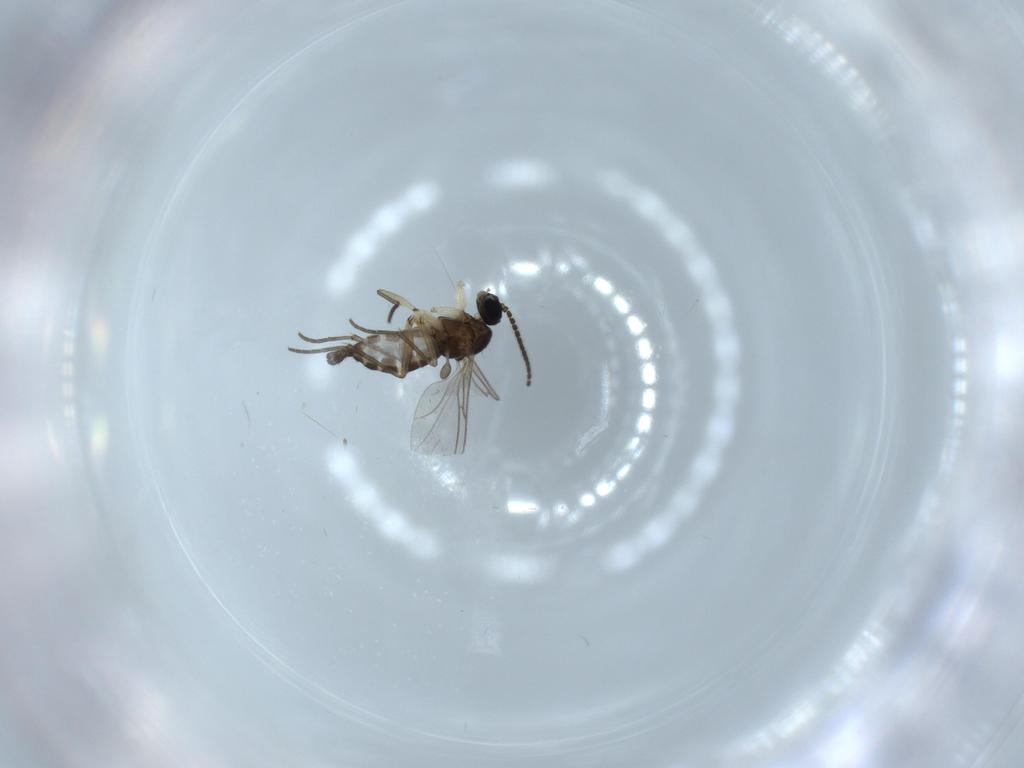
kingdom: Animalia
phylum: Arthropoda
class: Insecta
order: Diptera
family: Sciaridae
